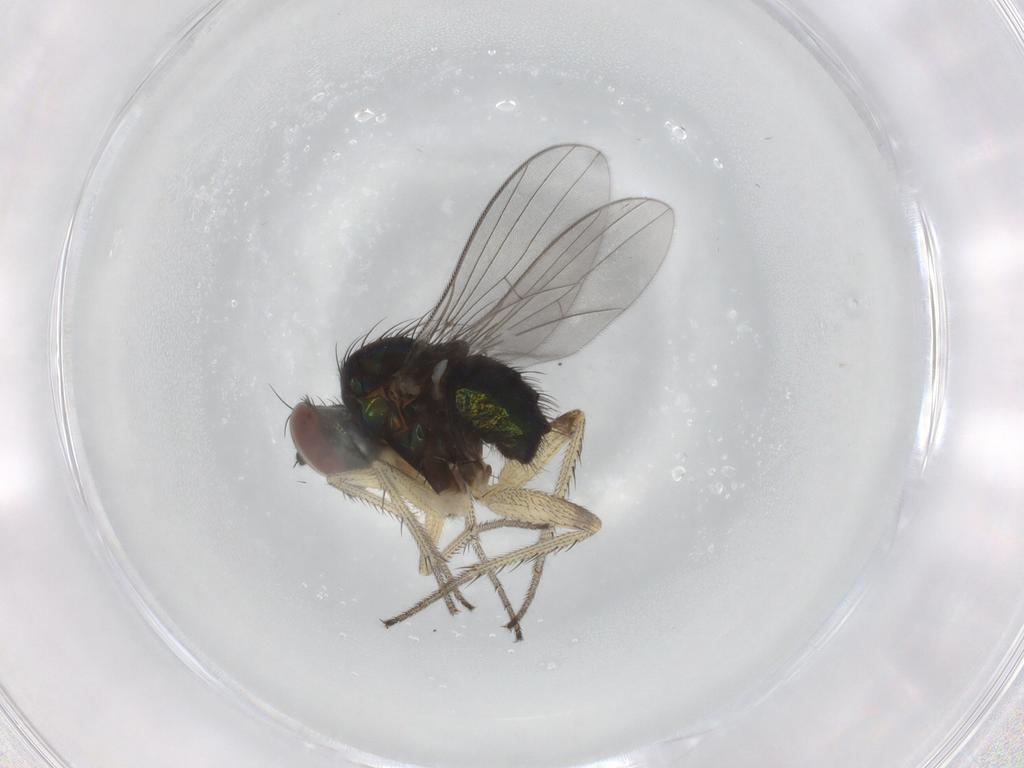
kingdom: Animalia
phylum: Arthropoda
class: Insecta
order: Diptera
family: Dolichopodidae
